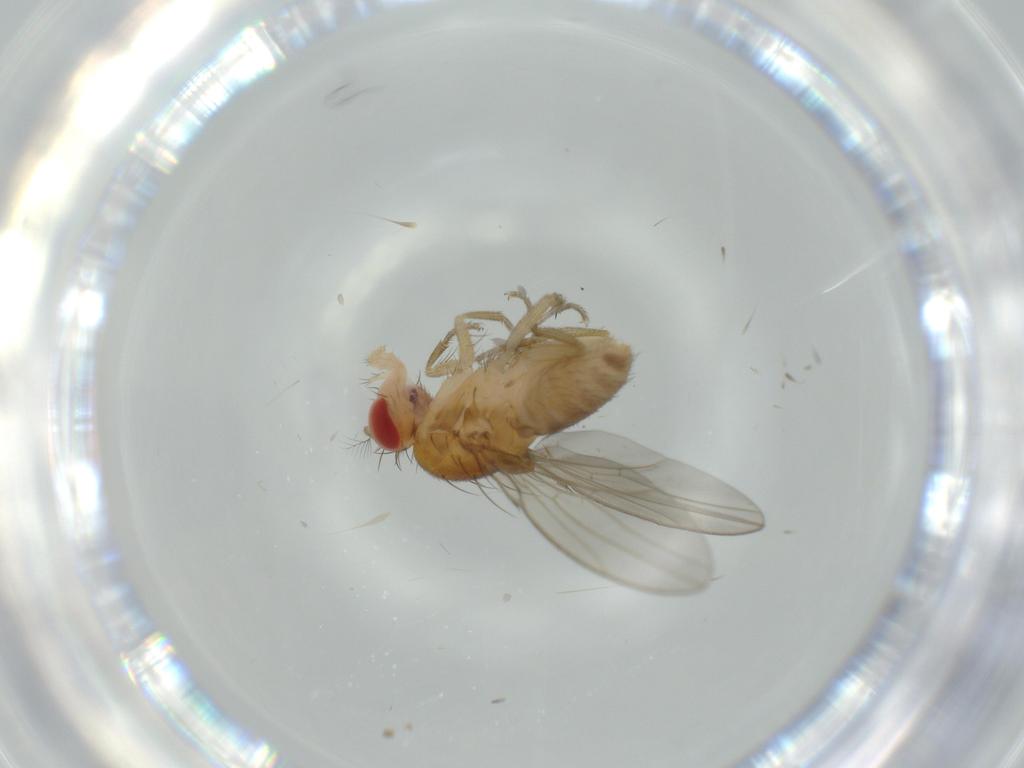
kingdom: Animalia
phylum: Arthropoda
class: Insecta
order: Diptera
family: Drosophilidae
